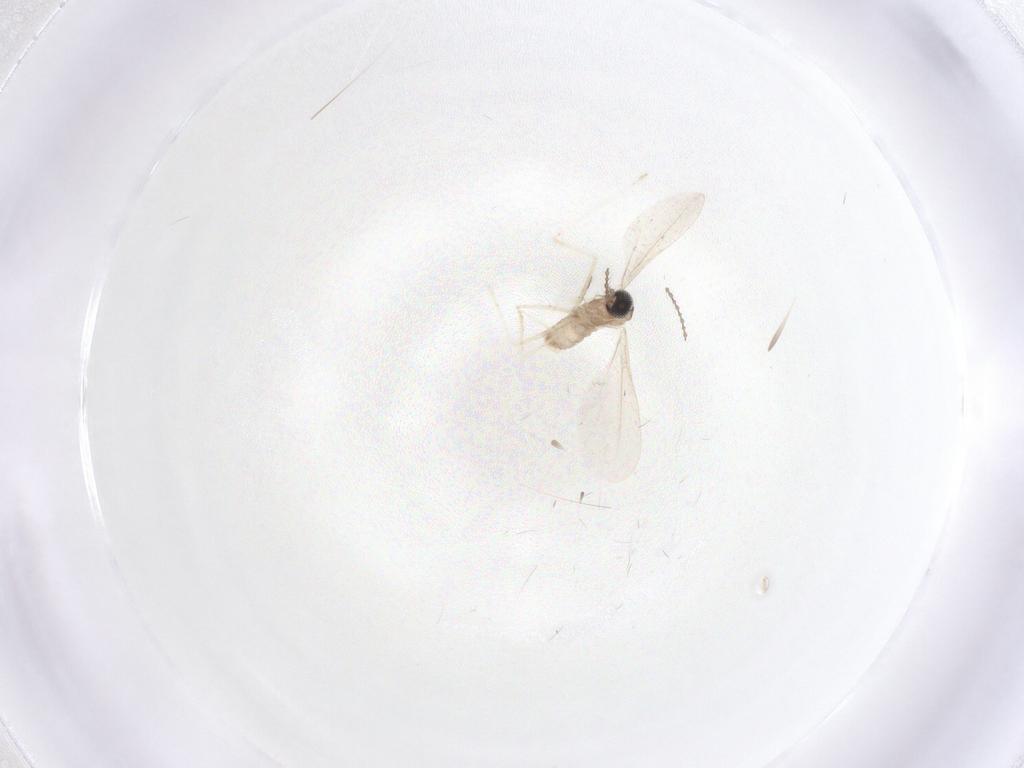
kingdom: Animalia
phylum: Arthropoda
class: Insecta
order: Diptera
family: Cecidomyiidae
